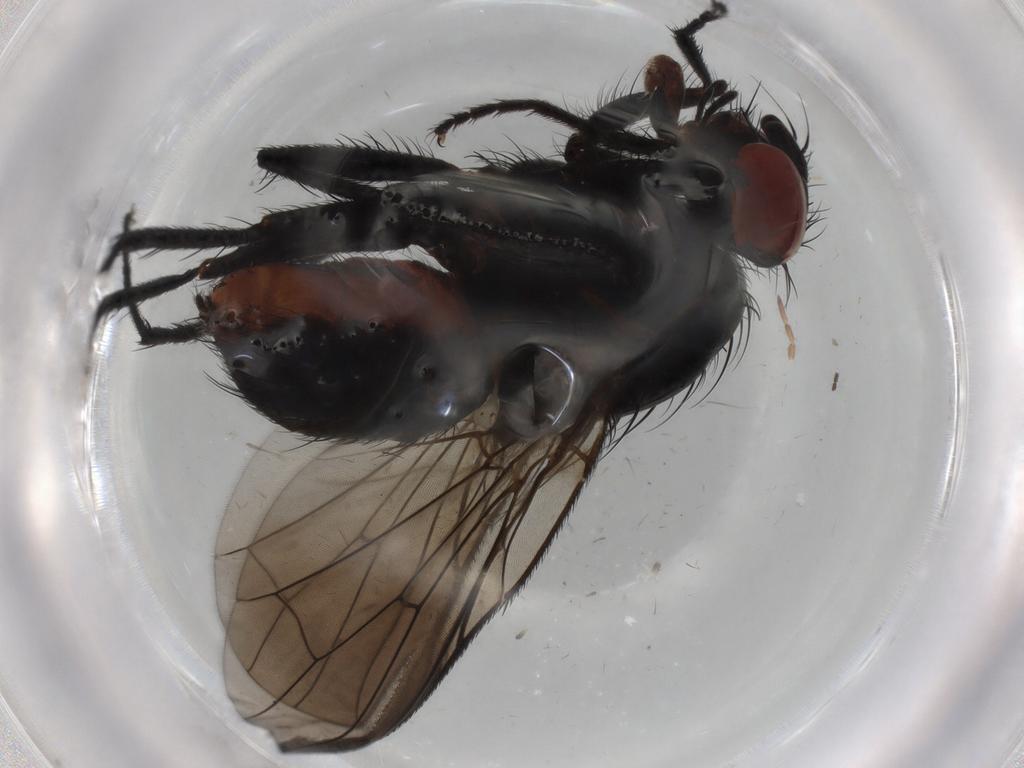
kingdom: Animalia
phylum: Arthropoda
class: Insecta
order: Diptera
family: Anthomyiidae
